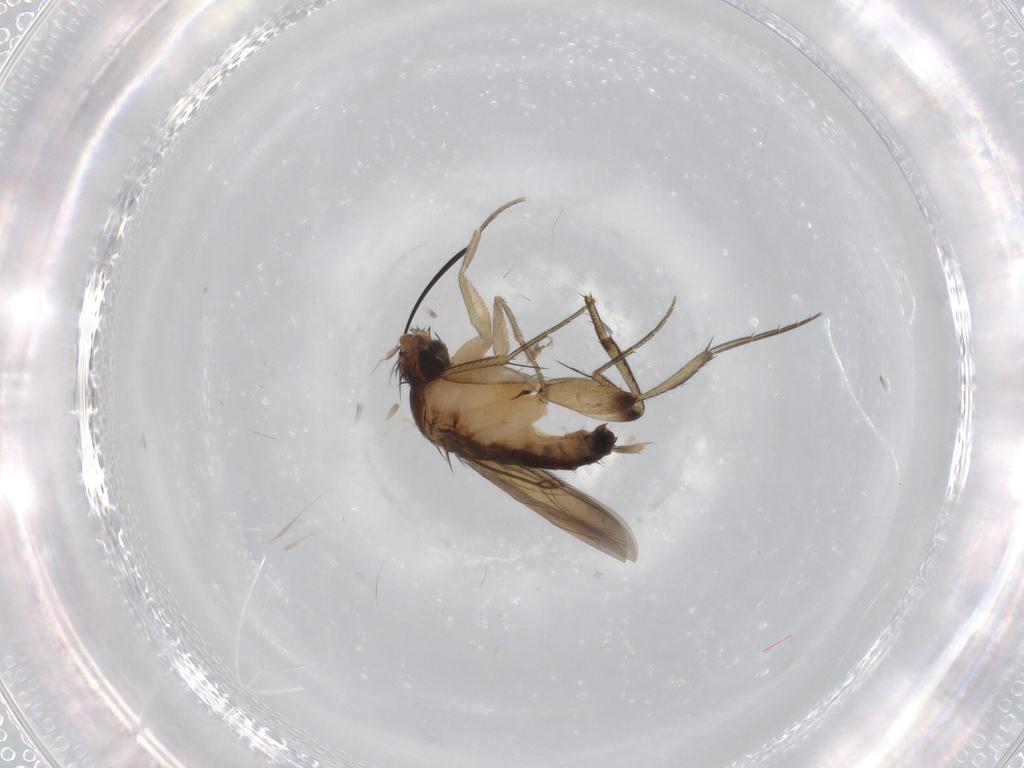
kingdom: Animalia
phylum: Arthropoda
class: Insecta
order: Diptera
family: Phoridae
